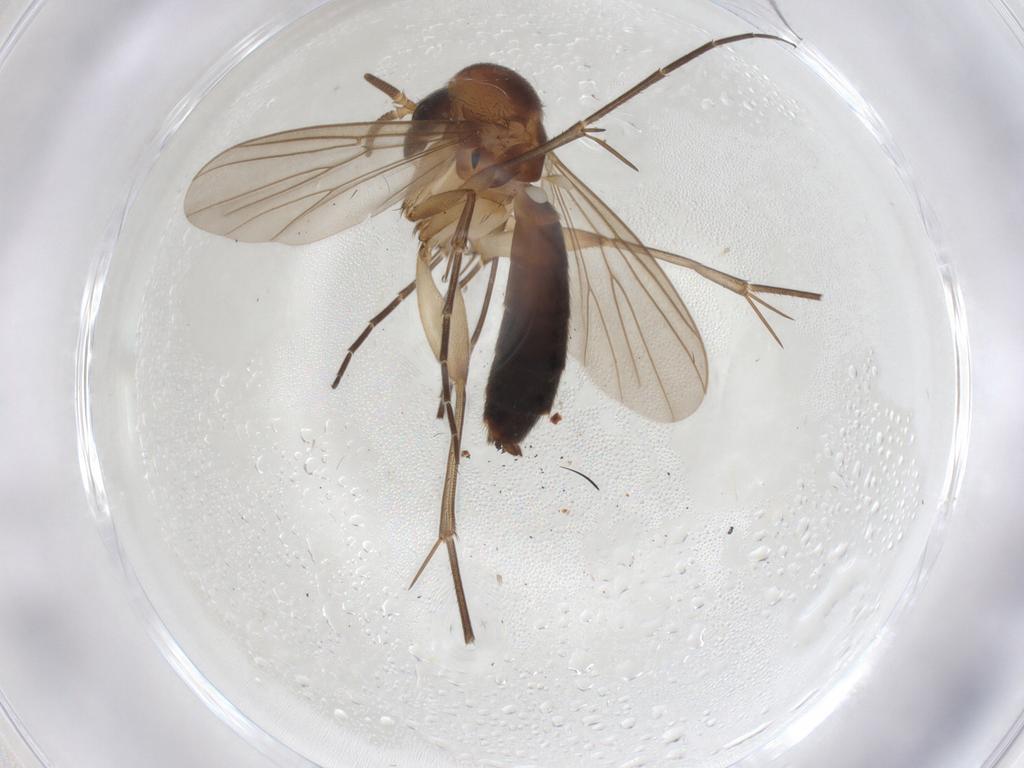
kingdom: Animalia
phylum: Arthropoda
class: Insecta
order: Diptera
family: Mycetophilidae
